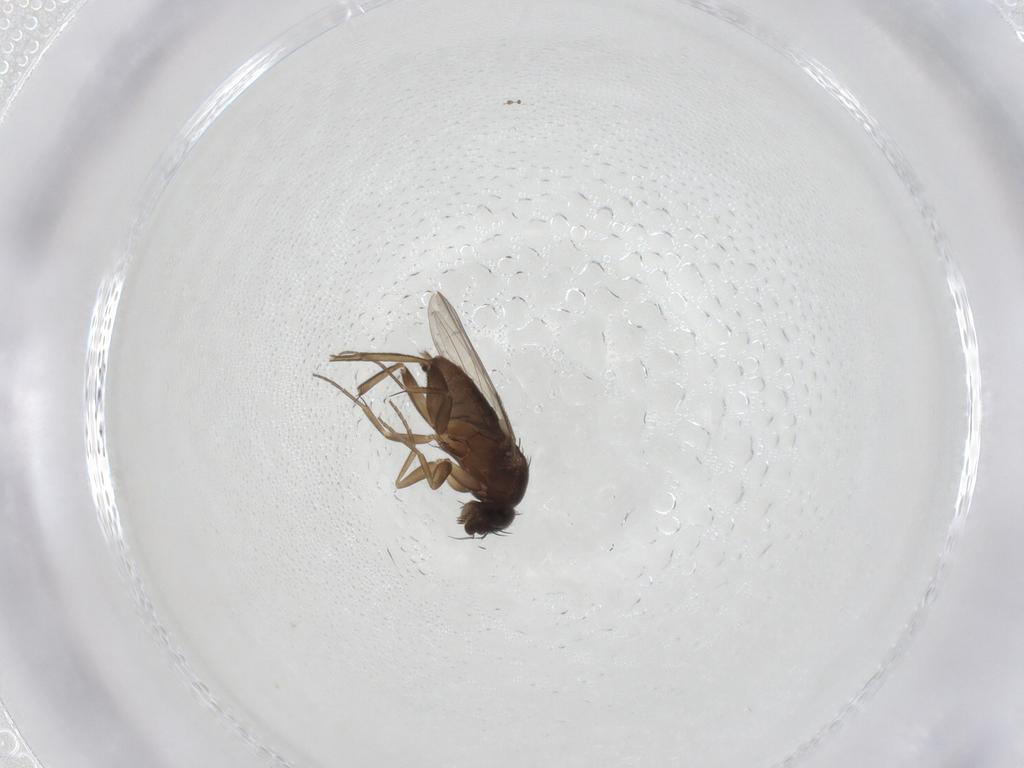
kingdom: Animalia
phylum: Arthropoda
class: Insecta
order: Diptera
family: Phoridae
